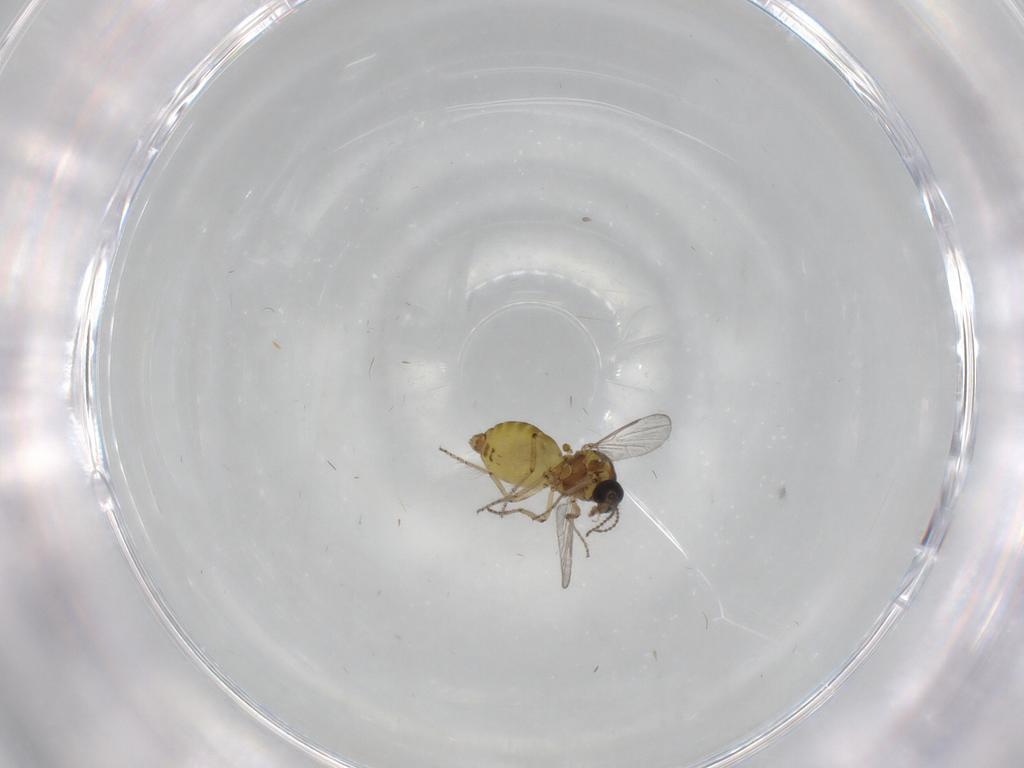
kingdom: Animalia
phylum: Arthropoda
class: Insecta
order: Diptera
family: Ceratopogonidae
